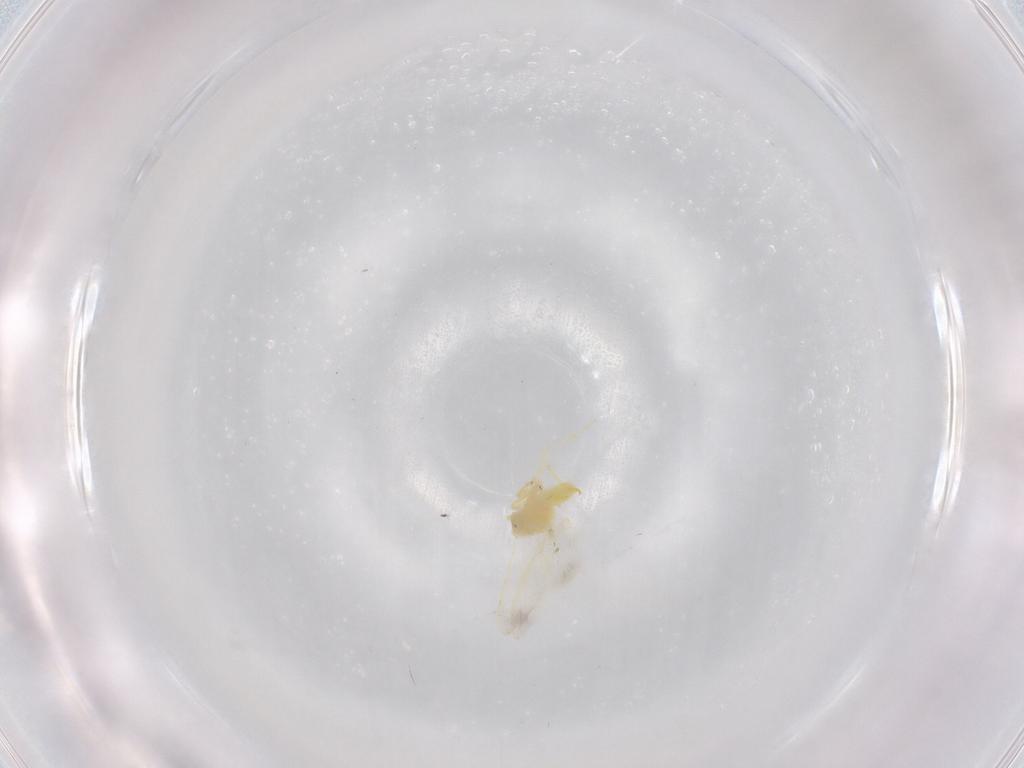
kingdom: Animalia
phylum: Arthropoda
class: Insecta
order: Hemiptera
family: Aleyrodidae
